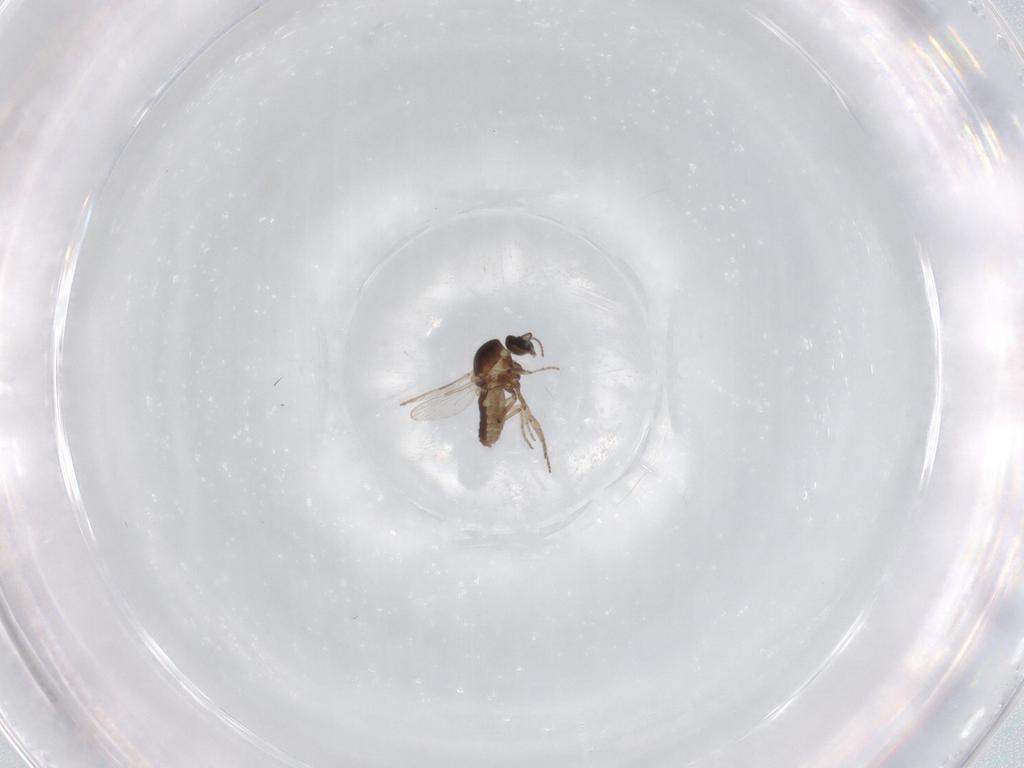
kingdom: Animalia
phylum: Arthropoda
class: Insecta
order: Diptera
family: Ceratopogonidae
